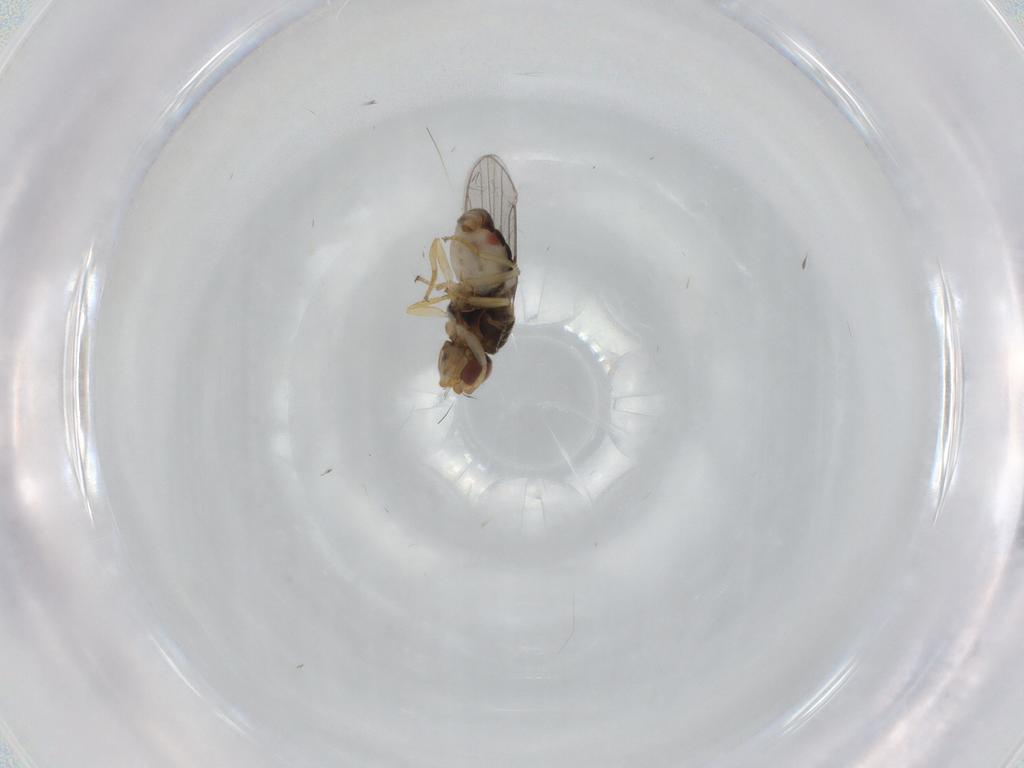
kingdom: Animalia
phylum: Arthropoda
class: Insecta
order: Diptera
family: Chloropidae
